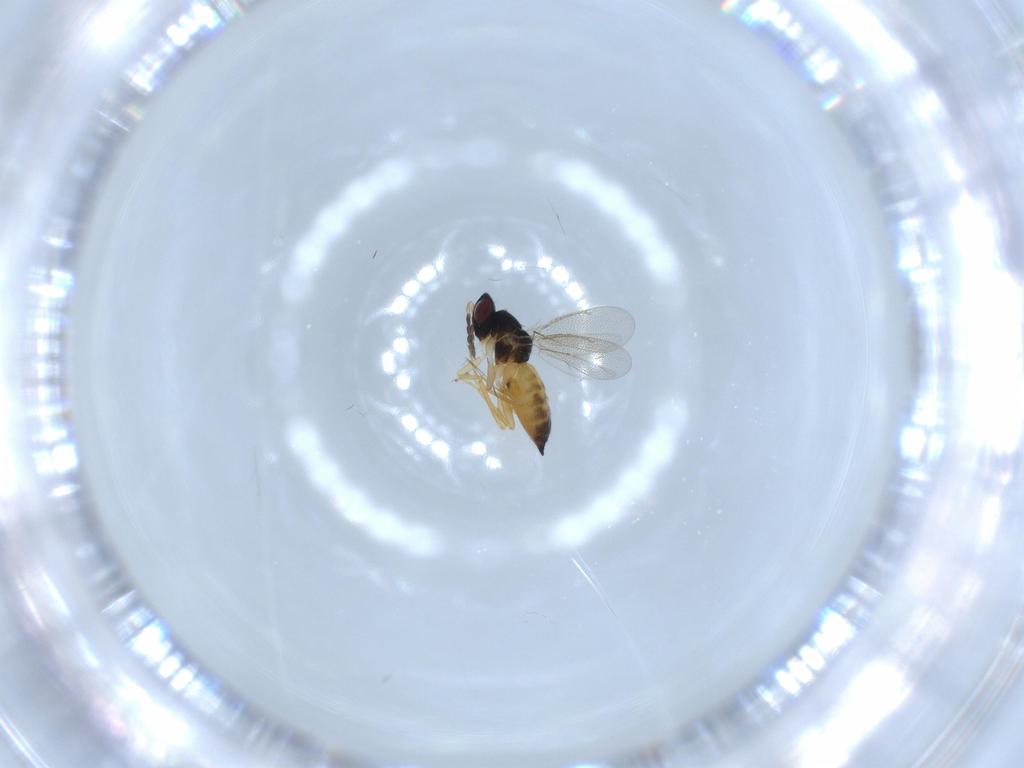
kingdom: Animalia
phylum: Arthropoda
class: Insecta
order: Hymenoptera
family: Eulophidae
